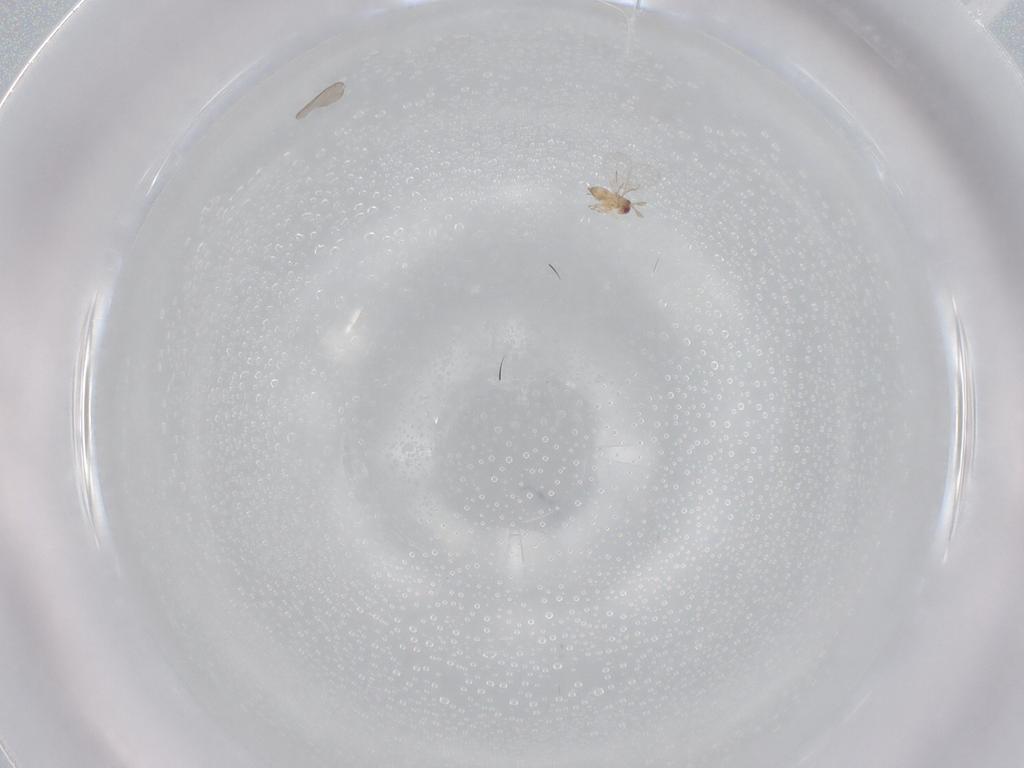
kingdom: Animalia
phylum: Arthropoda
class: Insecta
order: Hymenoptera
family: Trichogrammatidae
